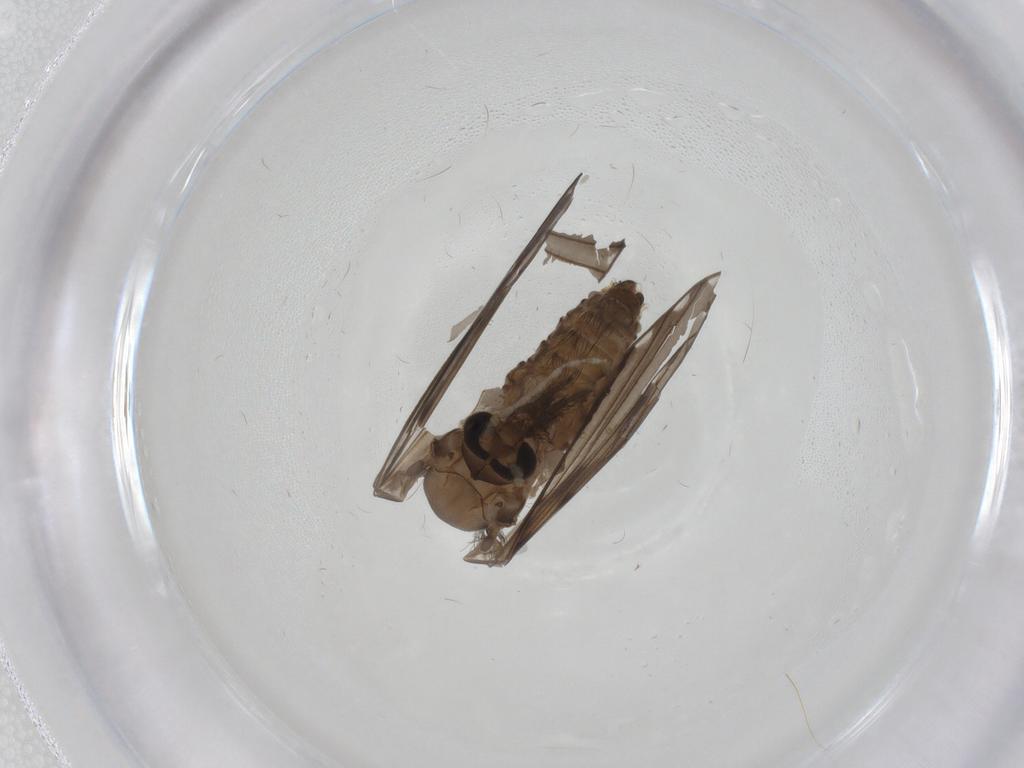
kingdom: Animalia
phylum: Arthropoda
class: Insecta
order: Diptera
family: Psychodidae
